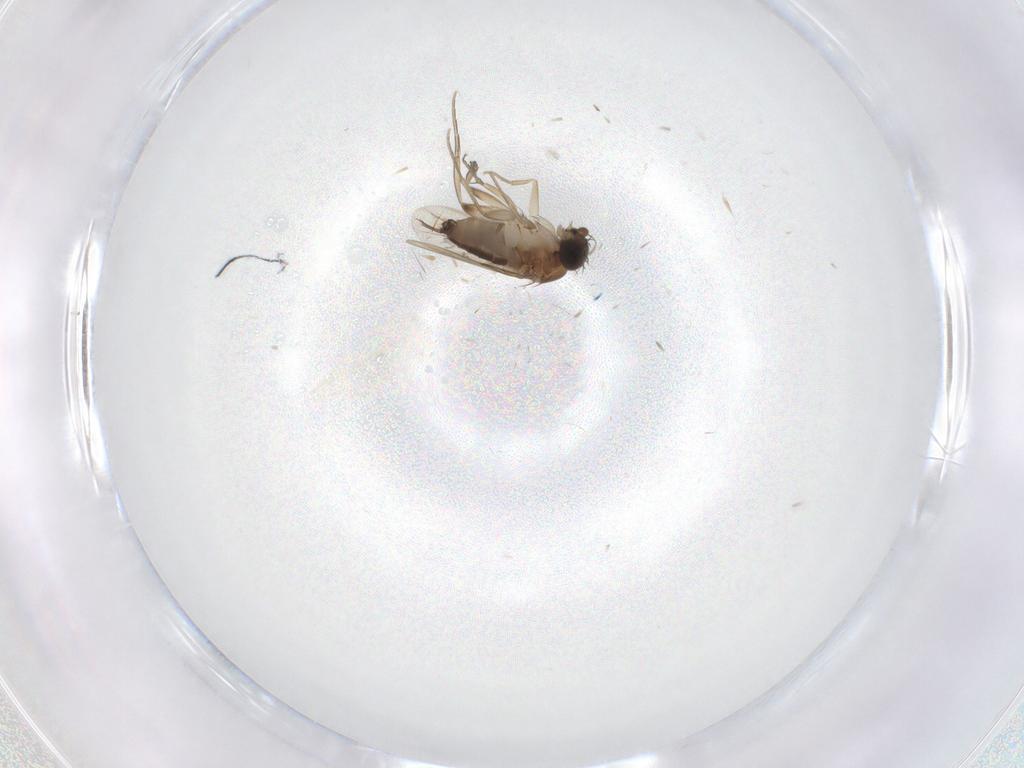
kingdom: Animalia
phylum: Arthropoda
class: Insecta
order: Diptera
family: Phoridae
